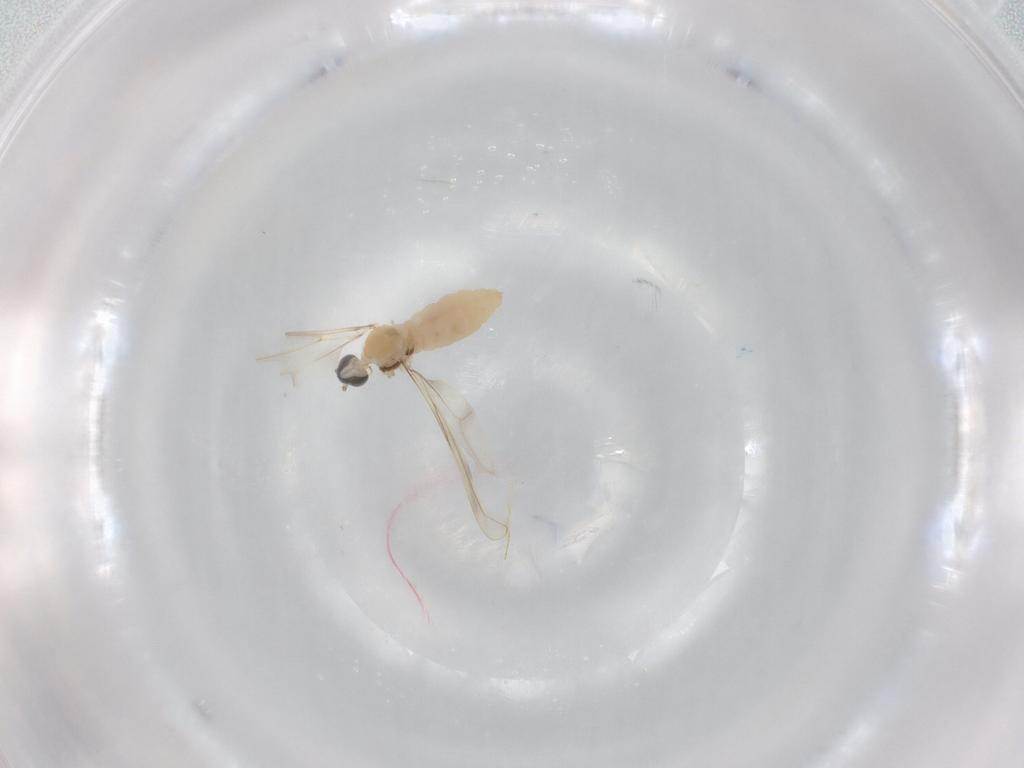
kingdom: Animalia
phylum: Arthropoda
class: Insecta
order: Diptera
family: Cecidomyiidae
